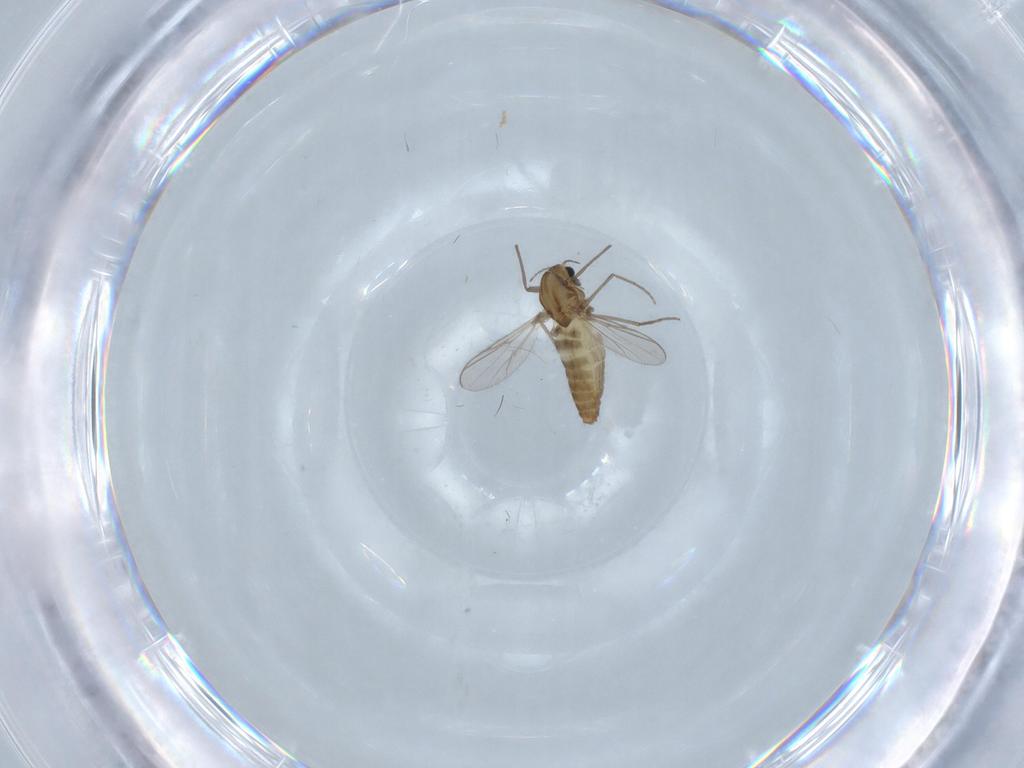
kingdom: Animalia
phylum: Arthropoda
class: Insecta
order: Diptera
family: Chironomidae
